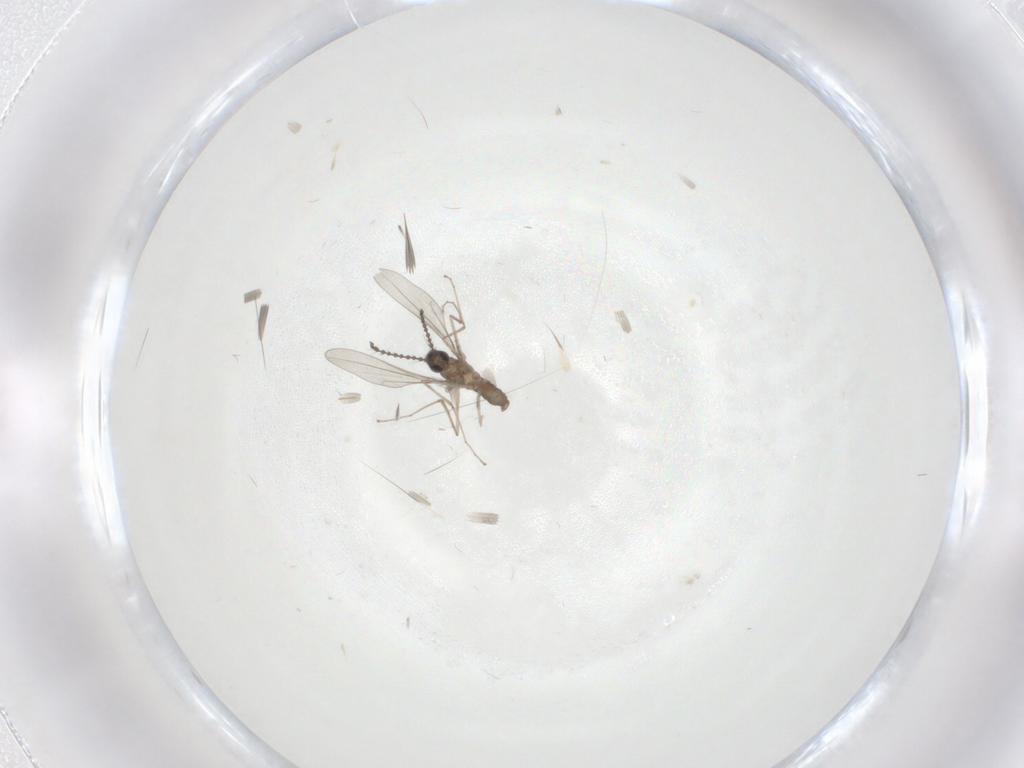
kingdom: Animalia
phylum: Arthropoda
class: Insecta
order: Diptera
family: Cecidomyiidae
